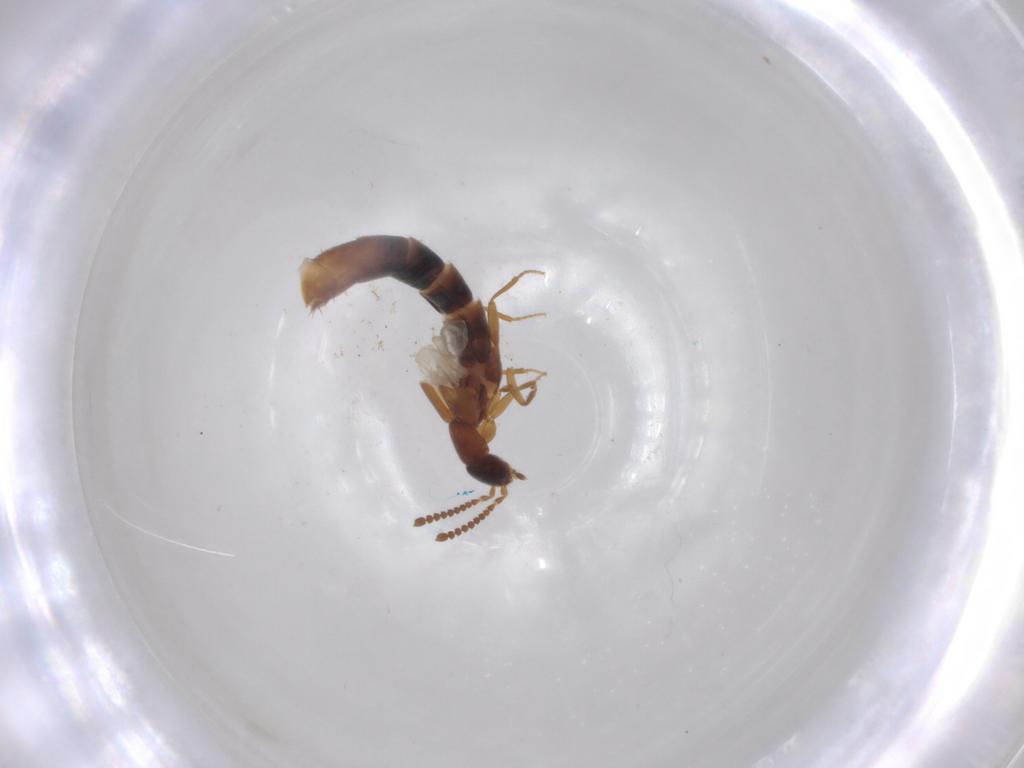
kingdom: Animalia
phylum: Arthropoda
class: Insecta
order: Coleoptera
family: Staphylinidae
